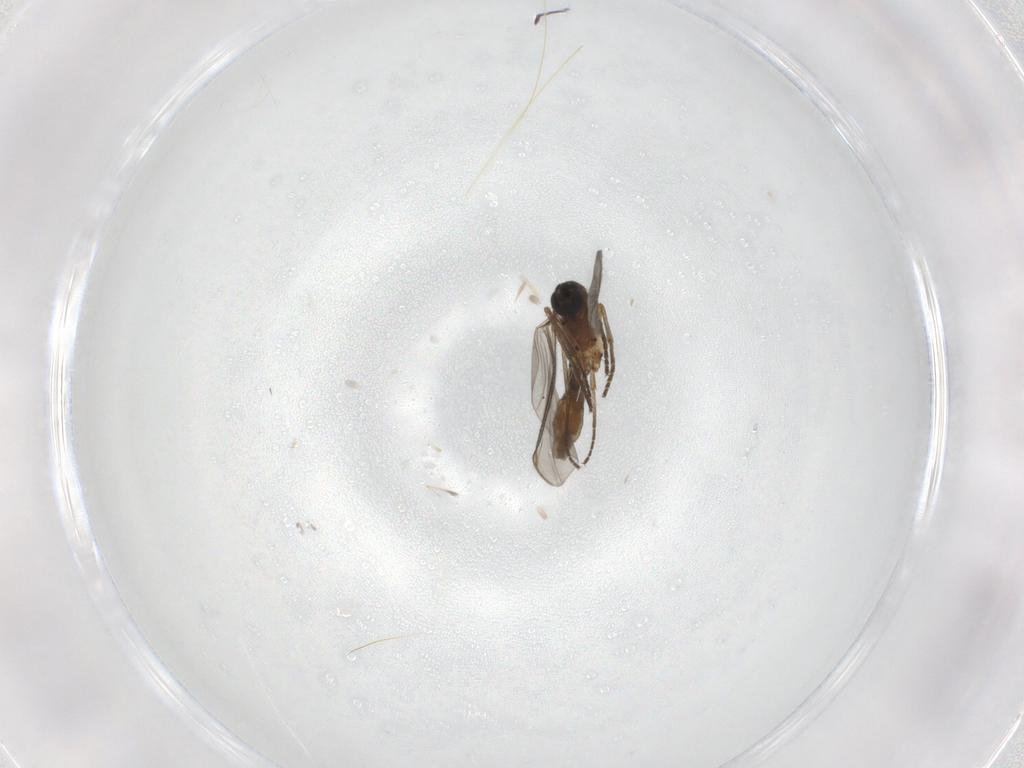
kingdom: Animalia
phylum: Arthropoda
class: Insecta
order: Diptera
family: Sciaridae
